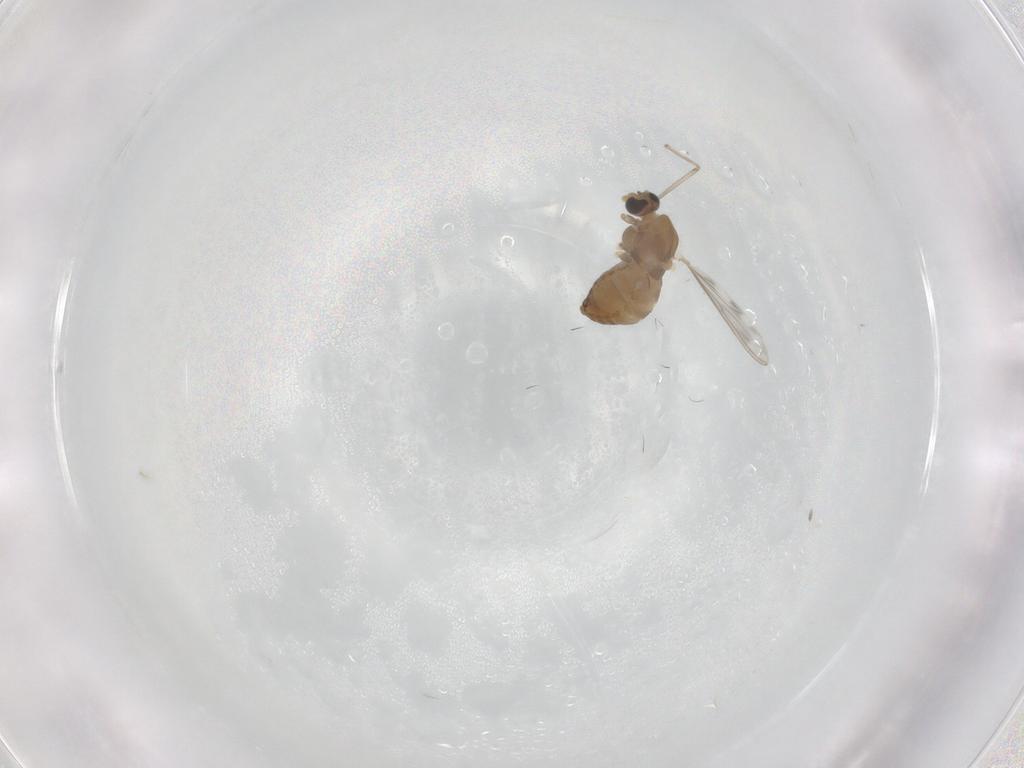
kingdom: Animalia
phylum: Arthropoda
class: Insecta
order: Diptera
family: Chironomidae
